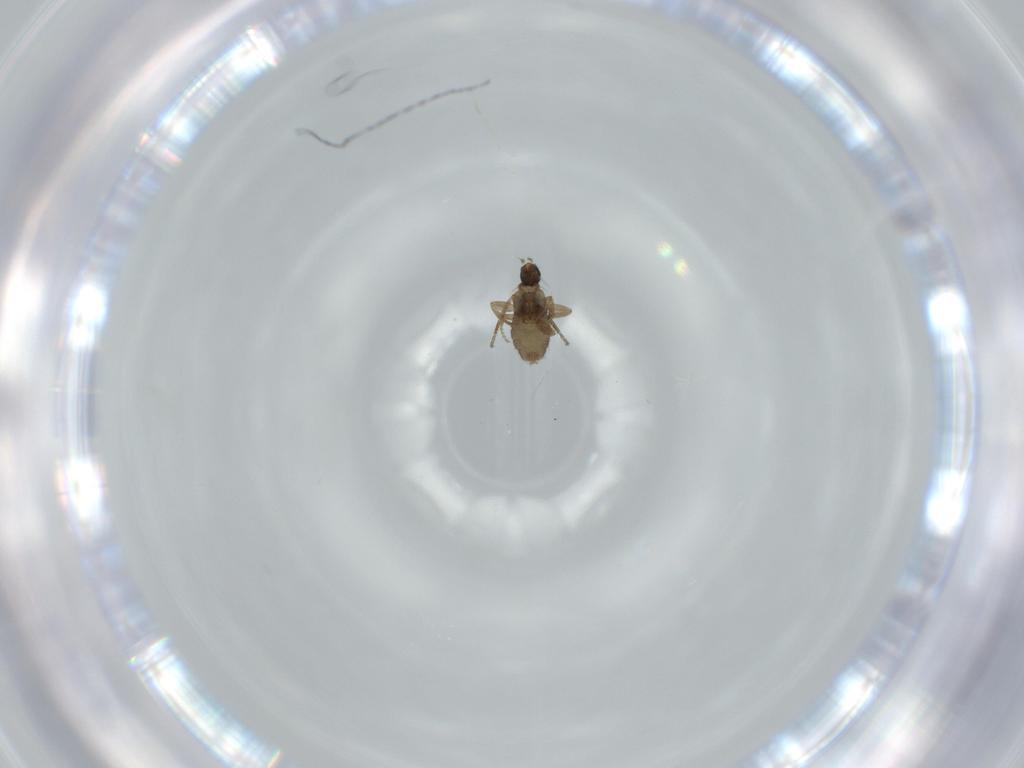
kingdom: Animalia
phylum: Arthropoda
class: Insecta
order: Diptera
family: Phoridae
